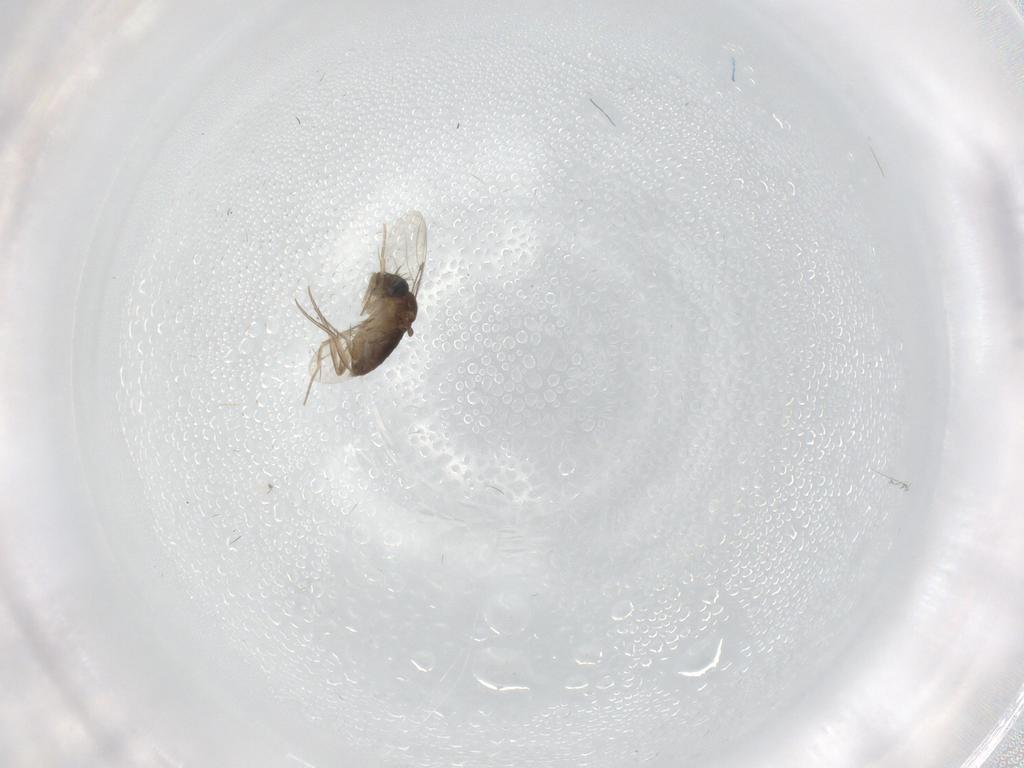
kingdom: Animalia
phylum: Arthropoda
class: Insecta
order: Diptera
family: Phoridae
